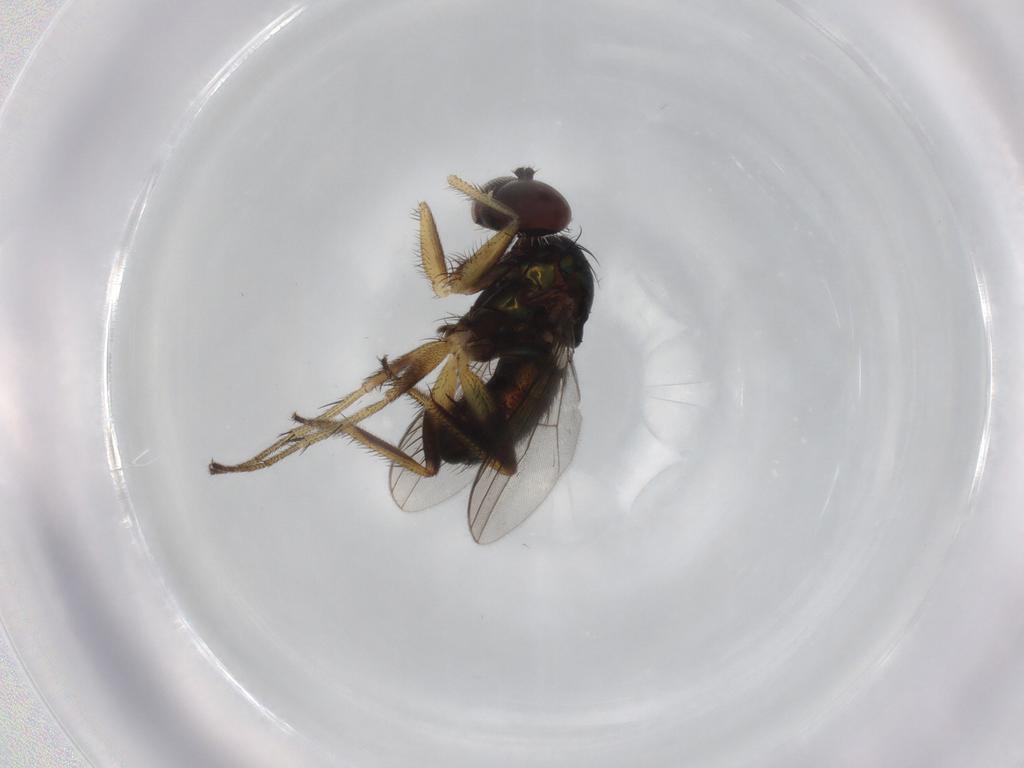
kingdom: Animalia
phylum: Arthropoda
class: Insecta
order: Diptera
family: Dolichopodidae
